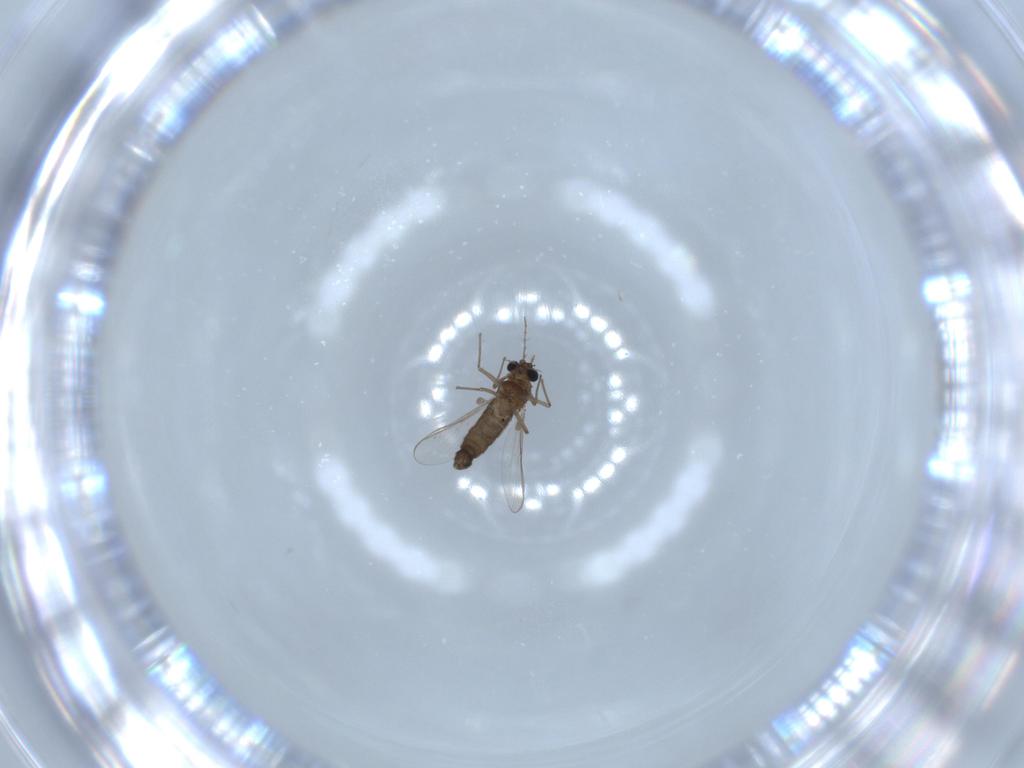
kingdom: Animalia
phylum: Arthropoda
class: Insecta
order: Diptera
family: Chironomidae
